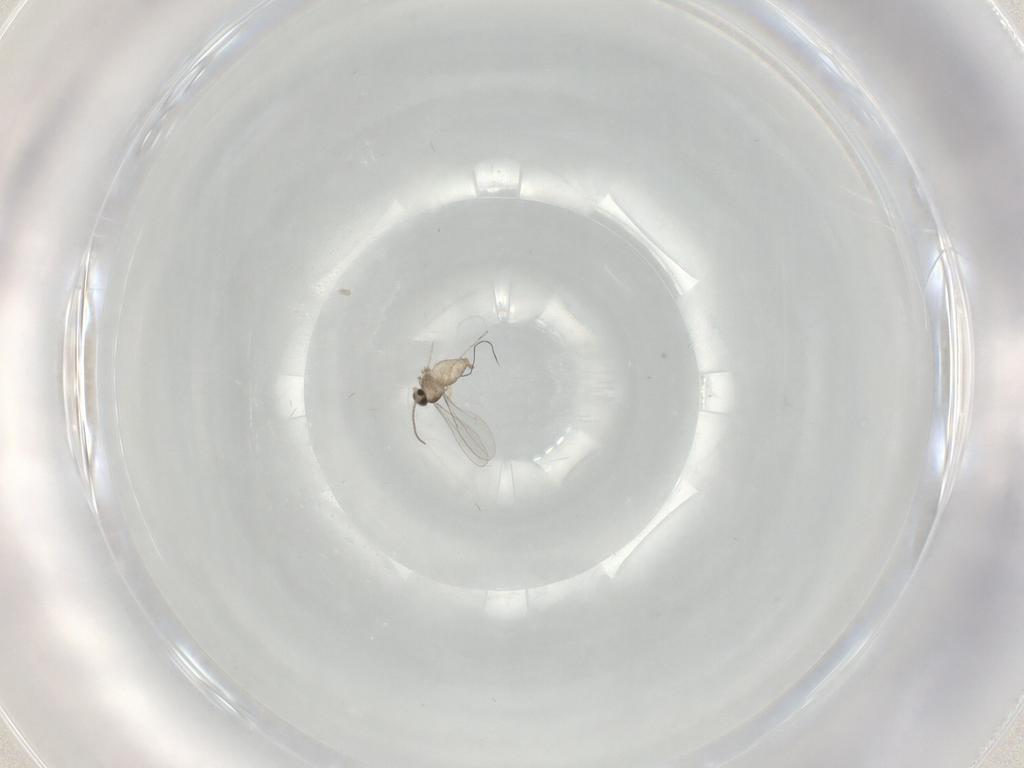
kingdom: Animalia
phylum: Arthropoda
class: Insecta
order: Diptera
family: Cecidomyiidae
